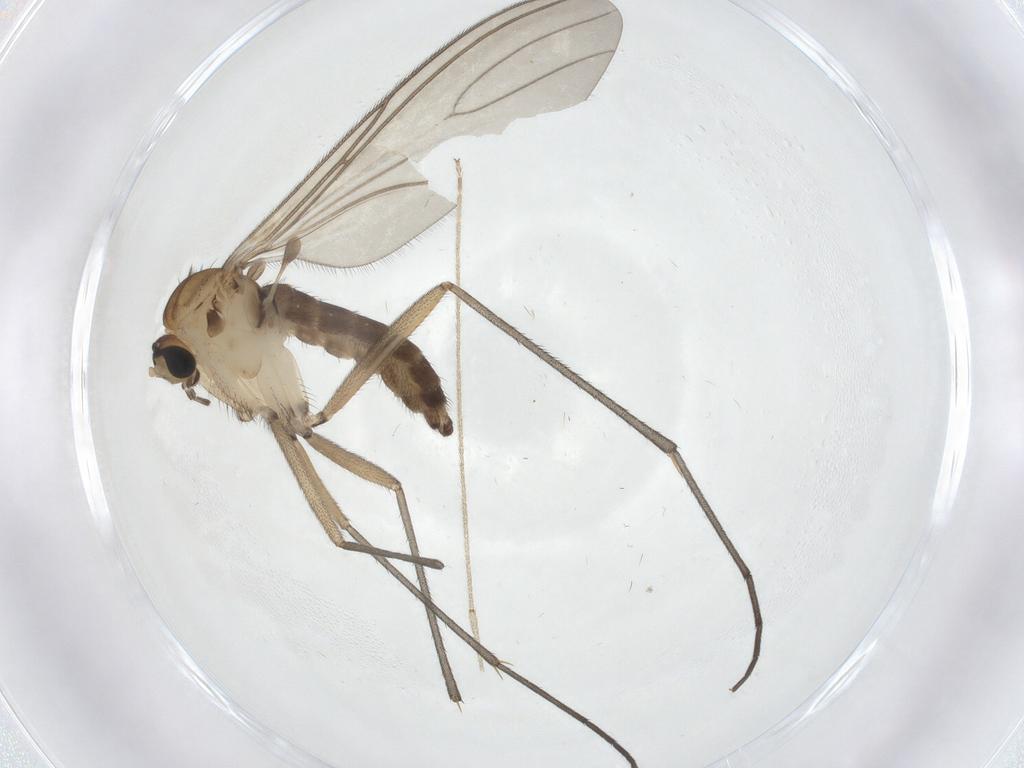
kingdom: Animalia
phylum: Arthropoda
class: Insecta
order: Diptera
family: Sciaridae
